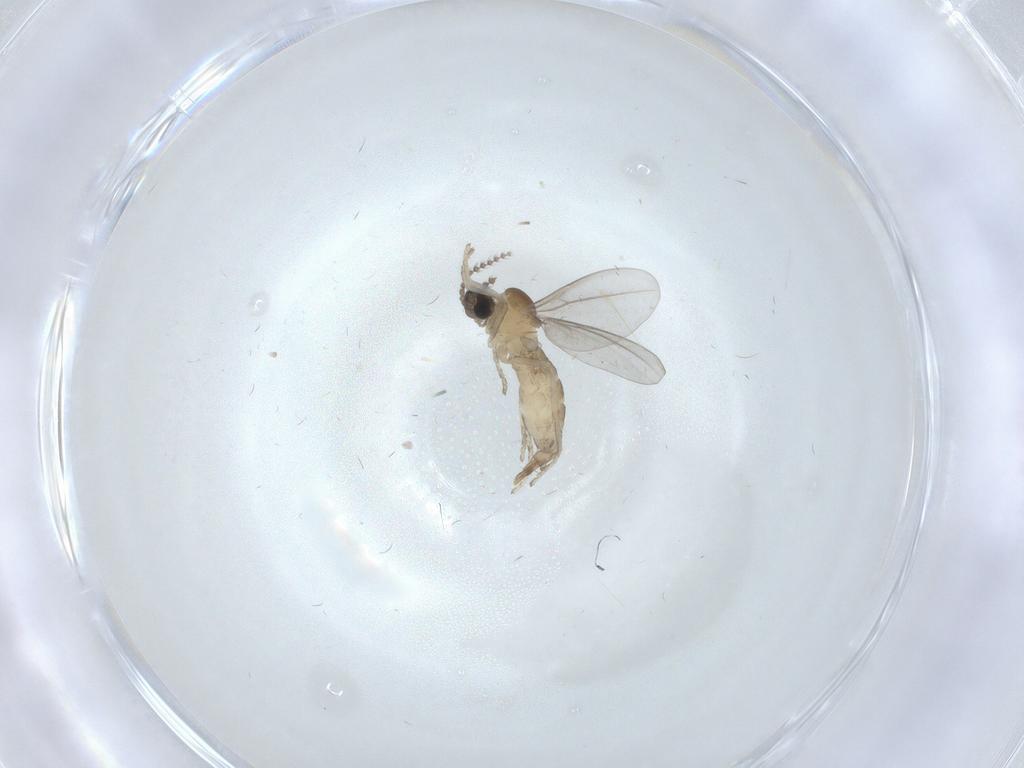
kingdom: Animalia
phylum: Arthropoda
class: Insecta
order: Diptera
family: Cecidomyiidae
